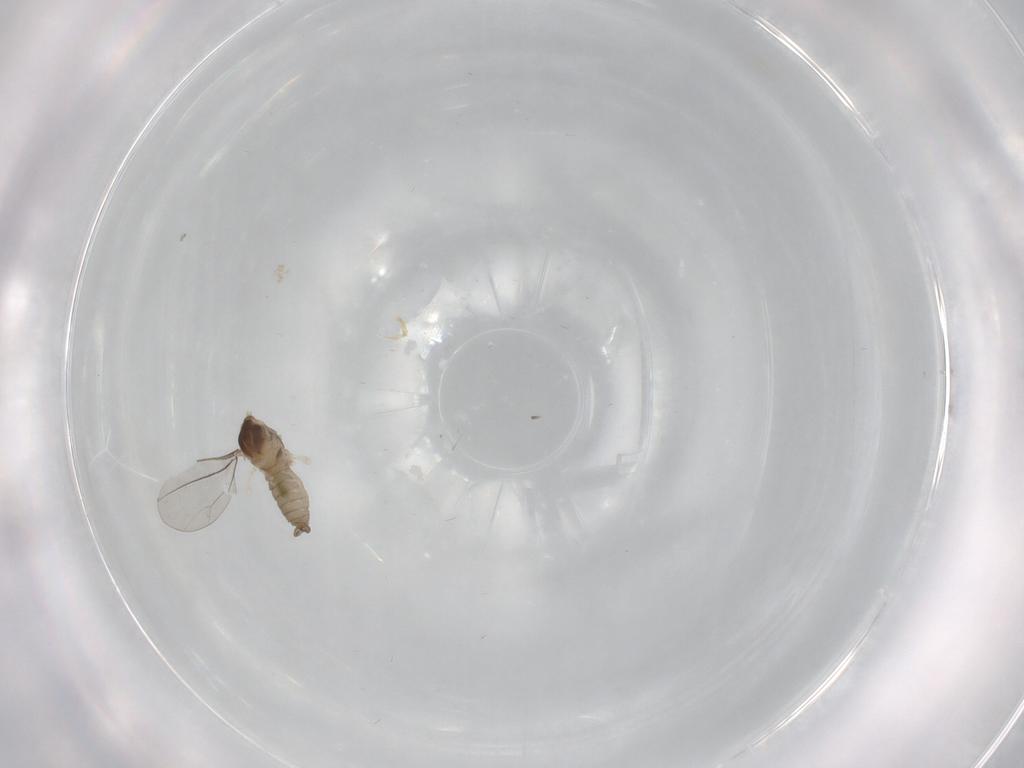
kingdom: Animalia
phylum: Arthropoda
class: Insecta
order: Diptera
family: Cecidomyiidae
